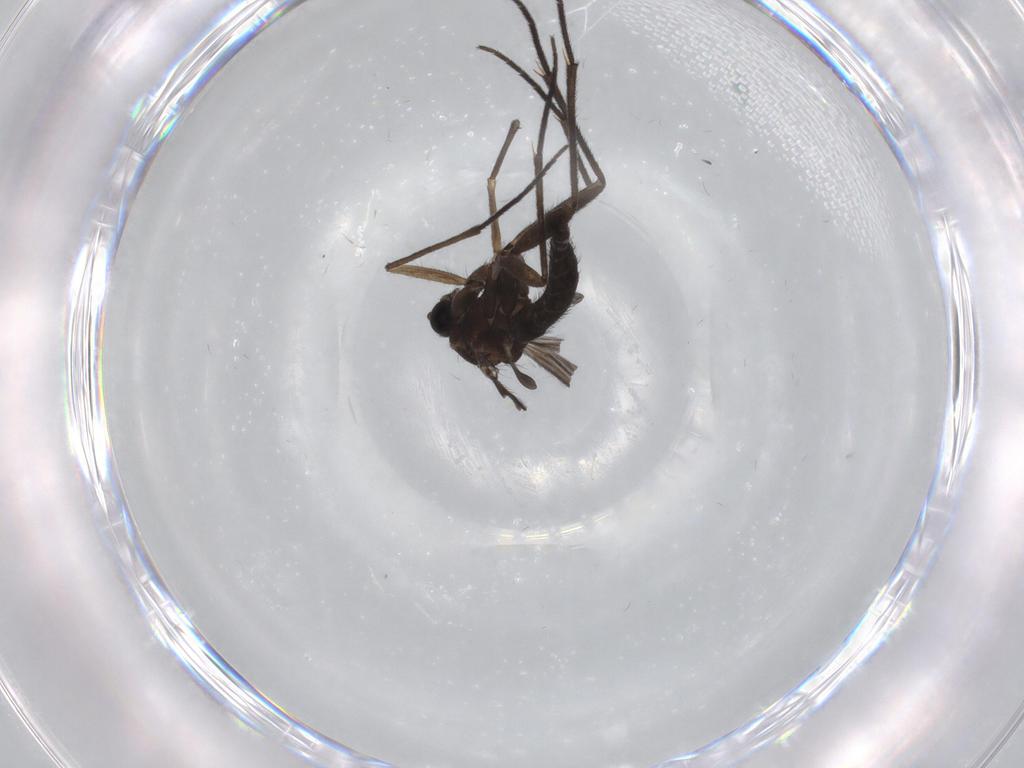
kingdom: Animalia
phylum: Arthropoda
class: Insecta
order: Diptera
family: Sciaridae
